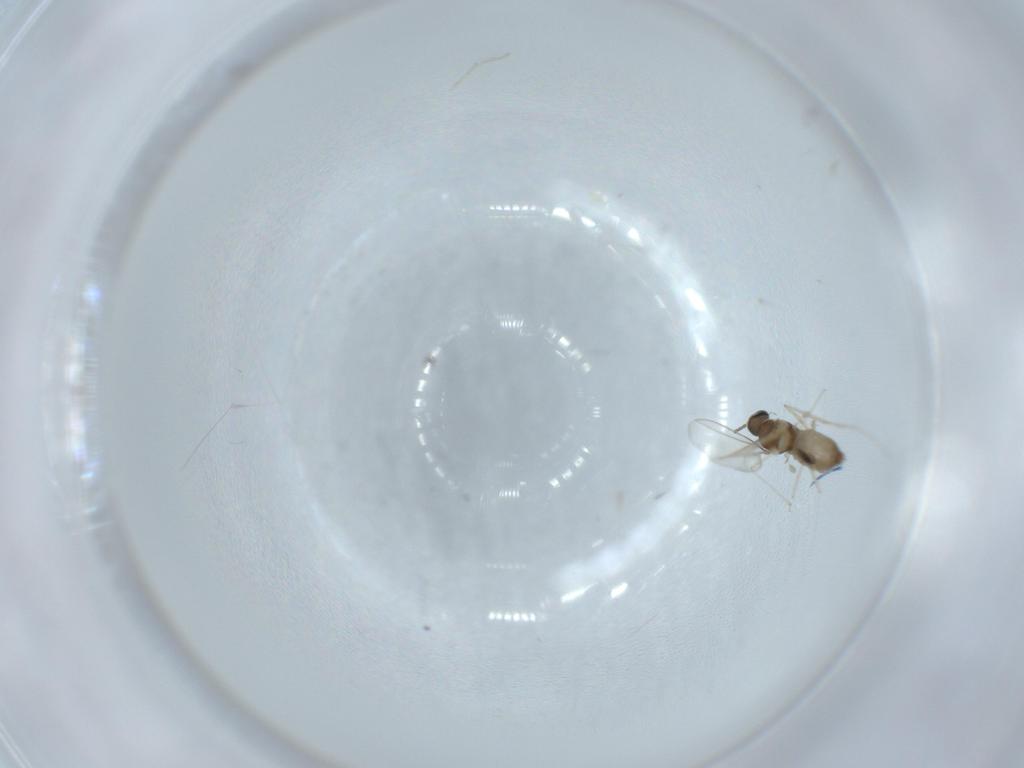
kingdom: Animalia
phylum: Arthropoda
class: Insecta
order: Diptera
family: Cecidomyiidae
